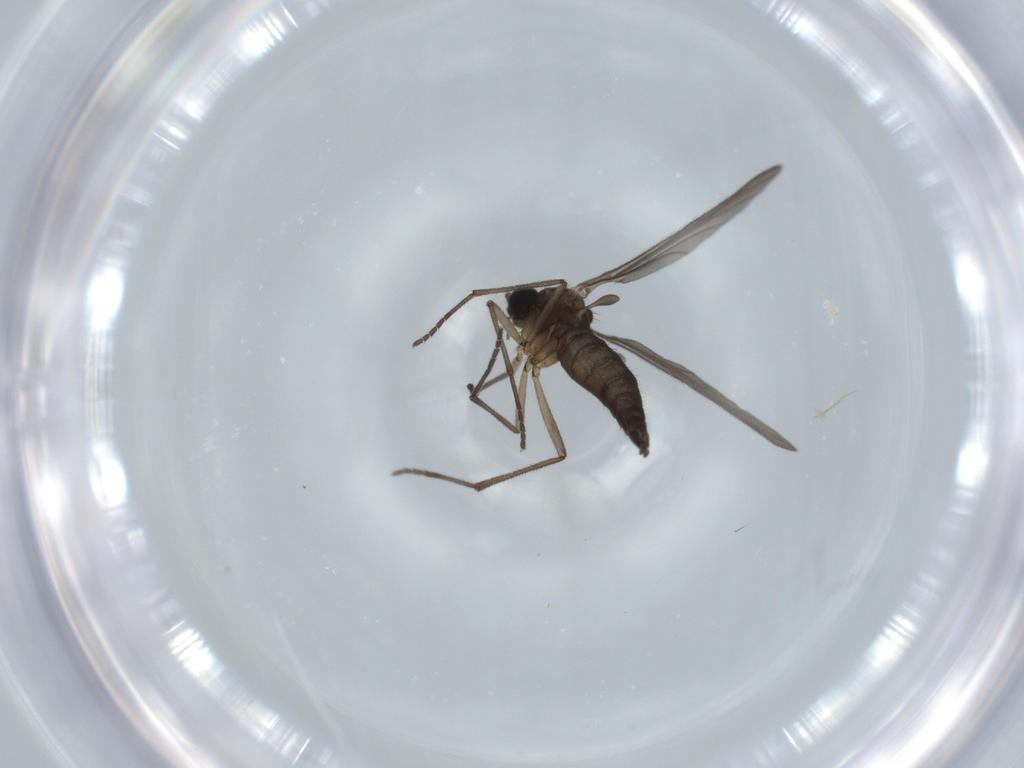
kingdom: Animalia
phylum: Arthropoda
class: Insecta
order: Diptera
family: Sciaridae
